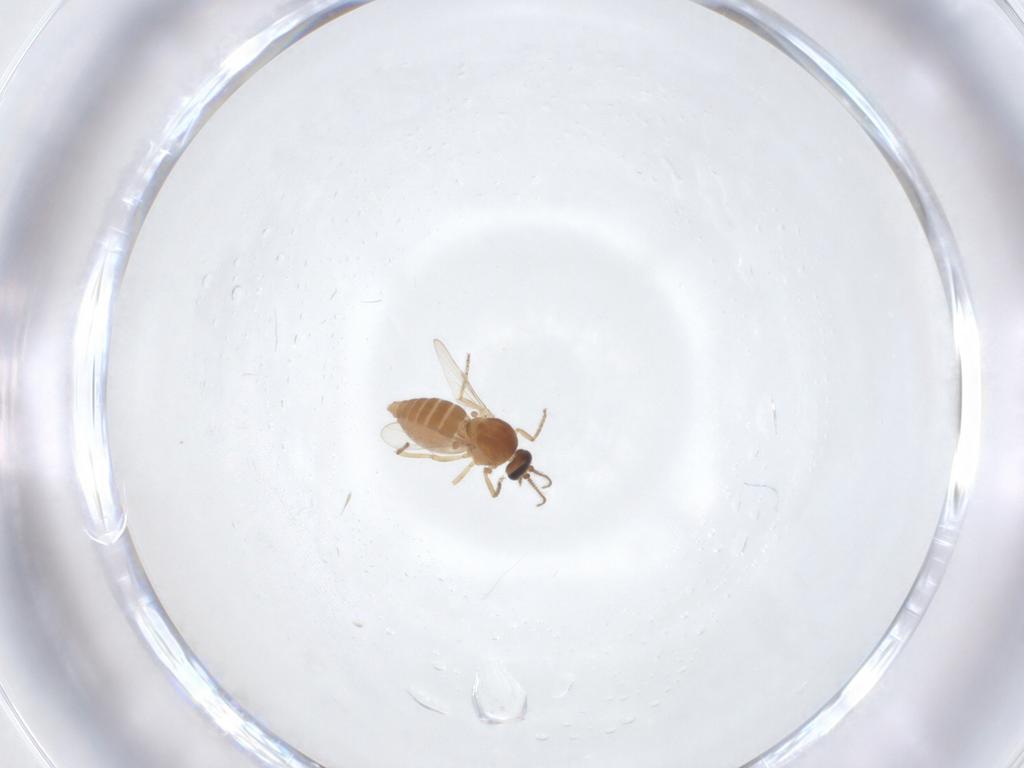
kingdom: Animalia
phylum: Arthropoda
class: Insecta
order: Diptera
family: Ceratopogonidae
